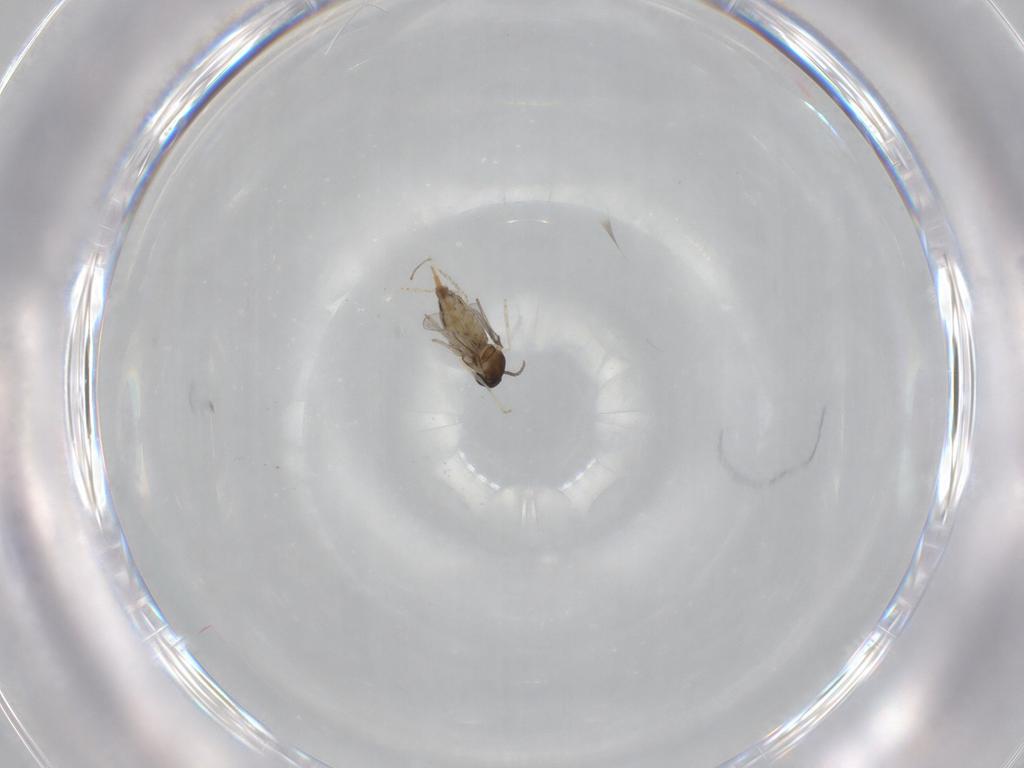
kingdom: Animalia
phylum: Arthropoda
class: Insecta
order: Diptera
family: Cecidomyiidae
